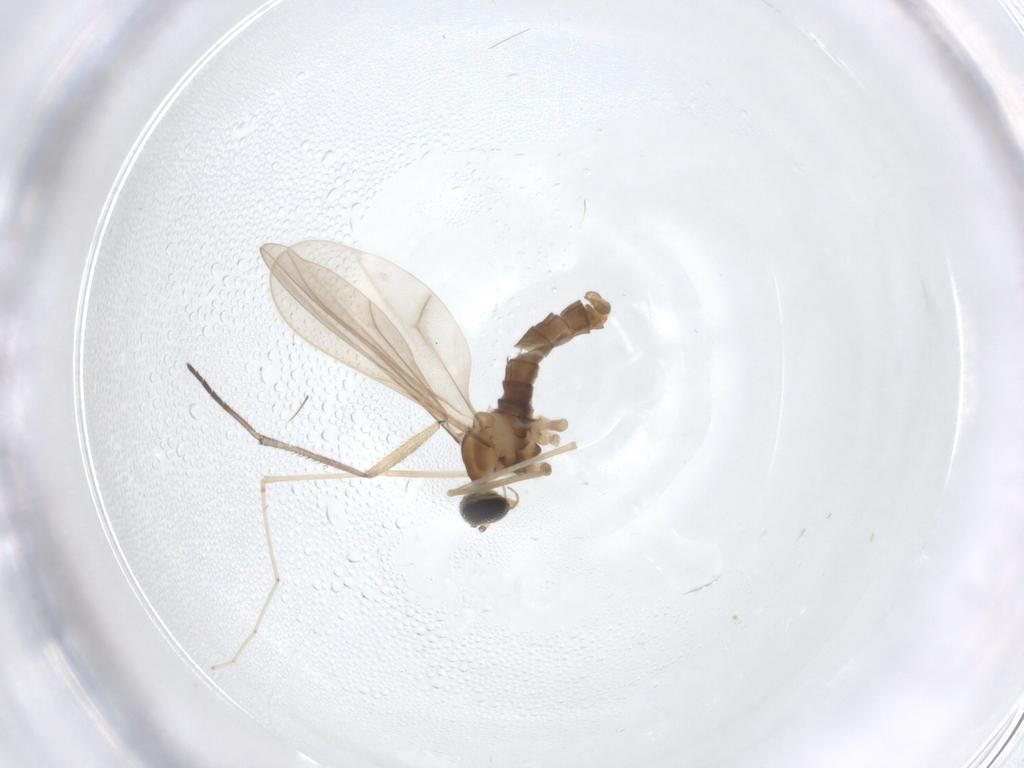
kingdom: Animalia
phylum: Arthropoda
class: Insecta
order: Diptera
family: Cecidomyiidae
